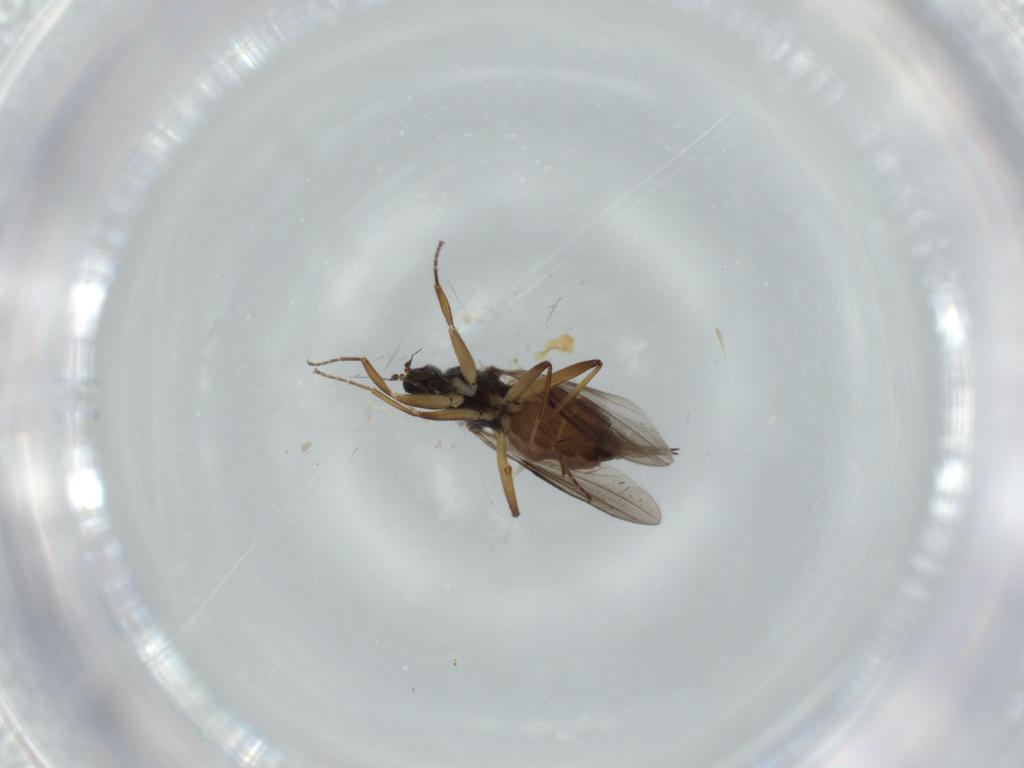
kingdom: Animalia
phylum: Arthropoda
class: Insecta
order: Diptera
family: Hybotidae
